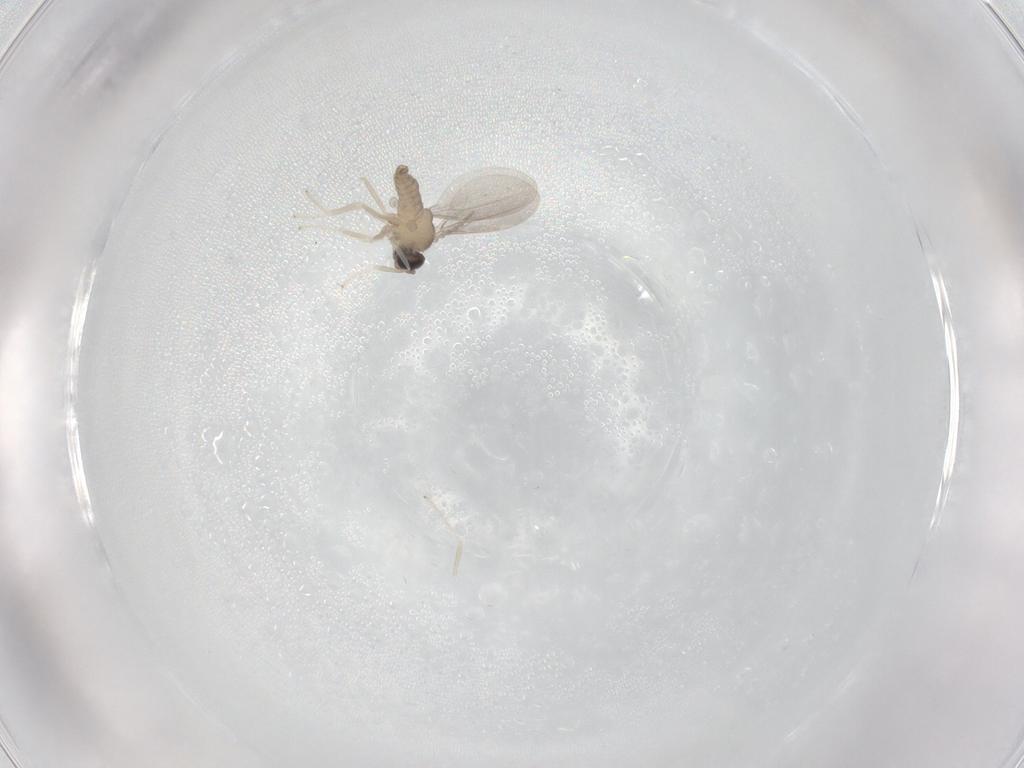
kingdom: Animalia
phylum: Arthropoda
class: Insecta
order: Diptera
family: Cecidomyiidae
